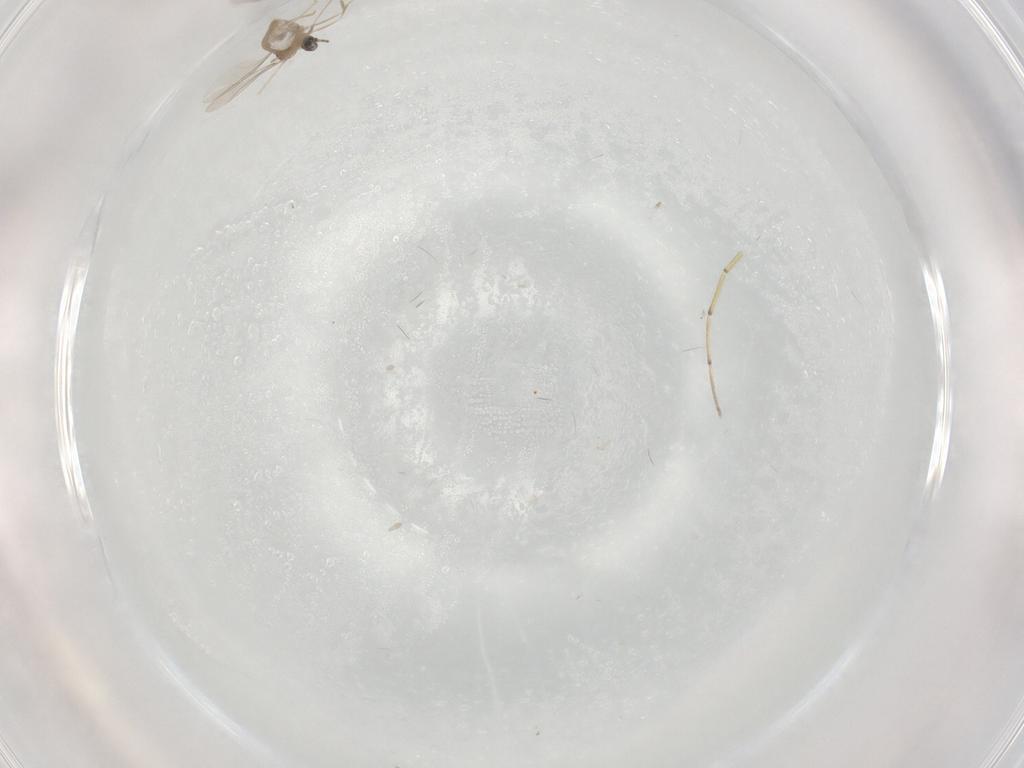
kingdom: Animalia
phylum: Arthropoda
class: Insecta
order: Diptera
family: Cecidomyiidae
